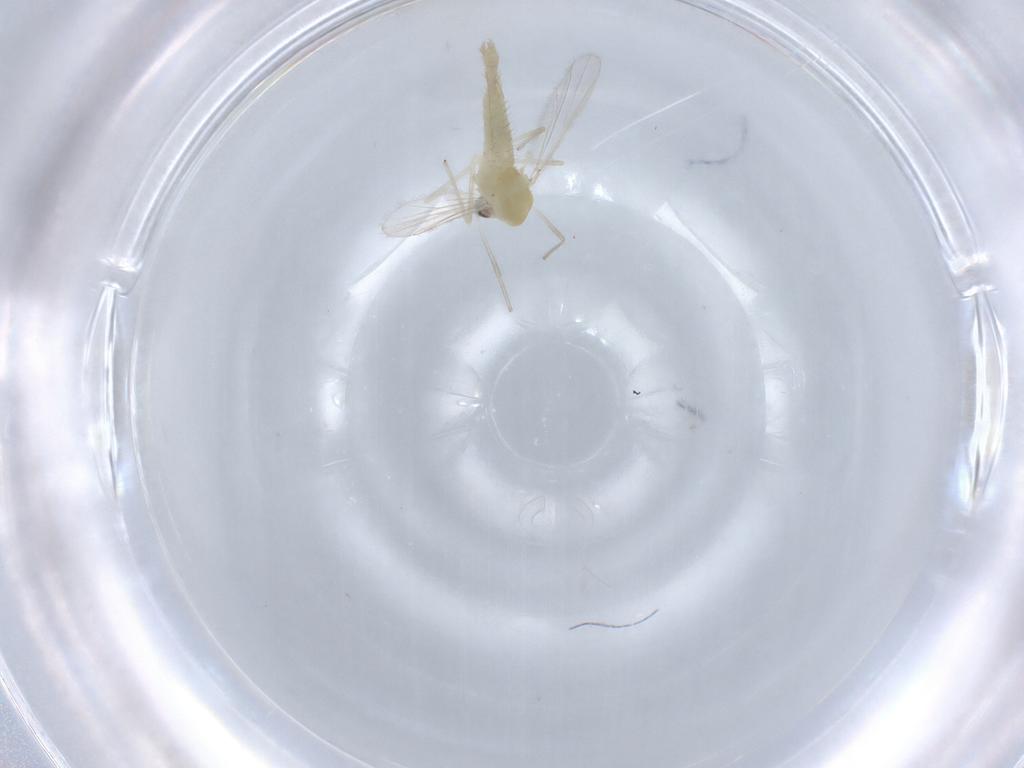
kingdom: Animalia
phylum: Arthropoda
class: Insecta
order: Diptera
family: Chironomidae
